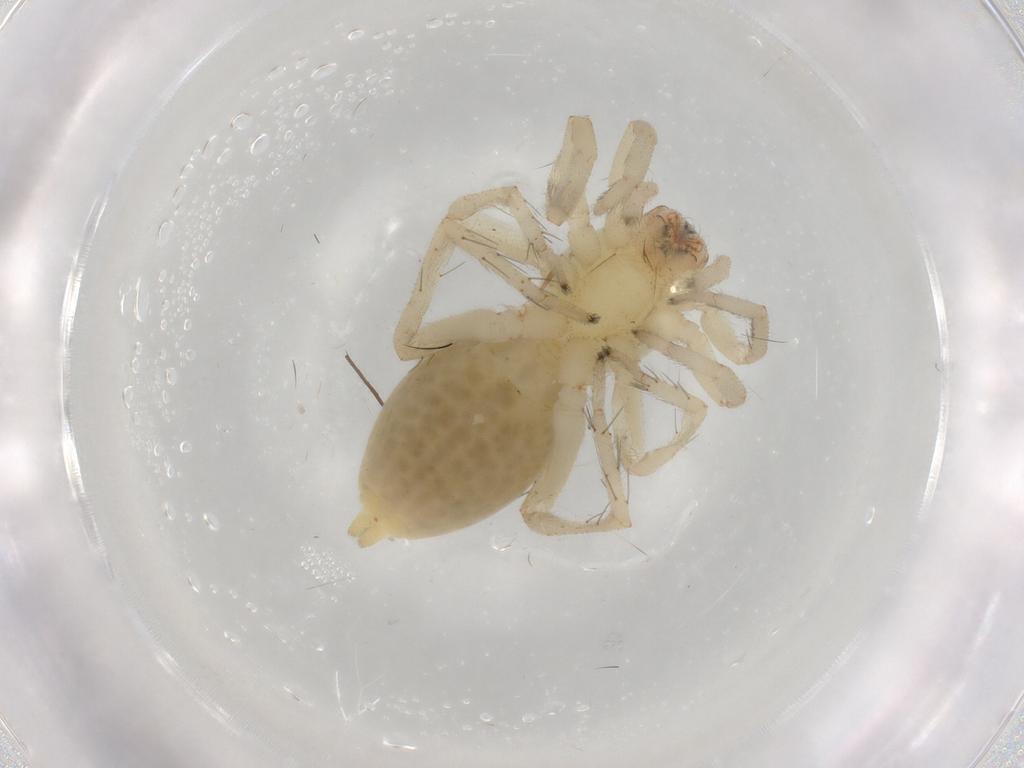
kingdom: Animalia
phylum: Arthropoda
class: Arachnida
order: Araneae
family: Clubionidae
